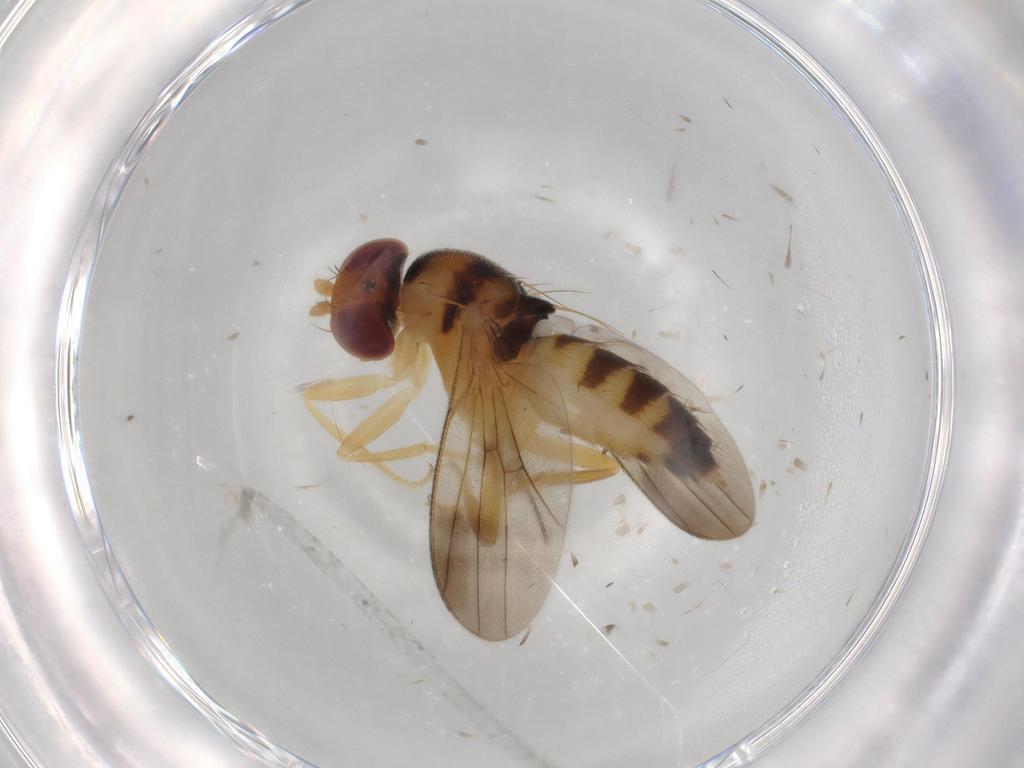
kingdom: Animalia
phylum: Arthropoda
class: Insecta
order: Diptera
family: Clusiidae
